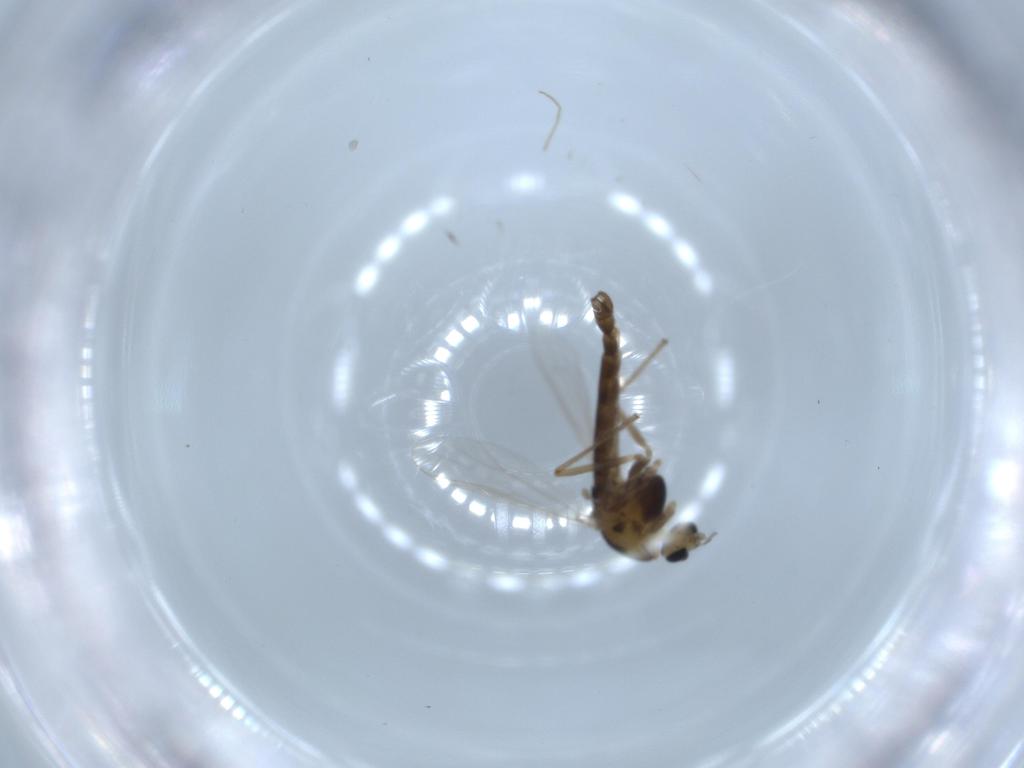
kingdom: Animalia
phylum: Arthropoda
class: Insecta
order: Diptera
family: Chironomidae
